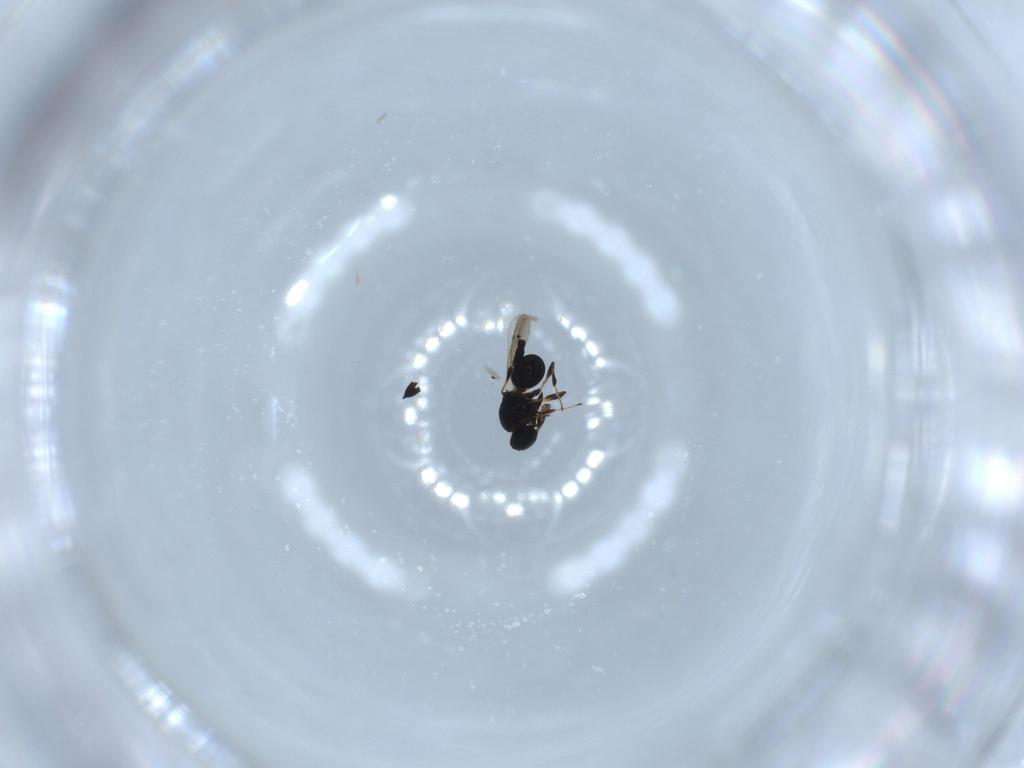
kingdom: Animalia
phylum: Arthropoda
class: Insecta
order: Hymenoptera
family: Platygastridae
